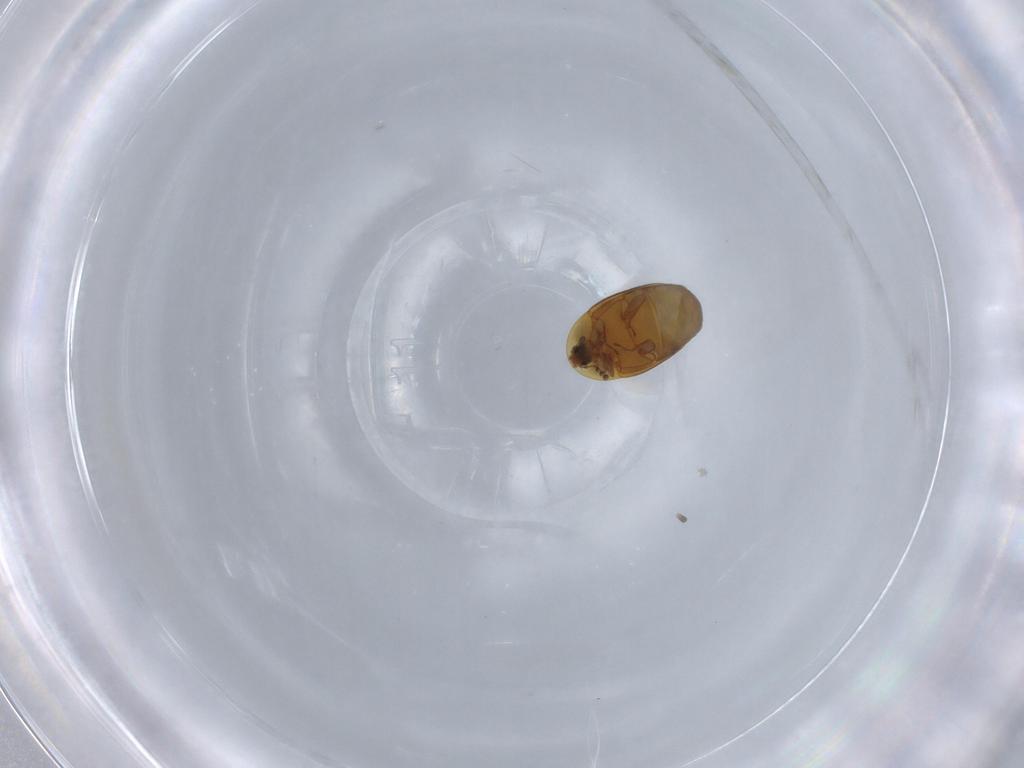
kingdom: Animalia
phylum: Arthropoda
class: Insecta
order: Coleoptera
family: Corylophidae
